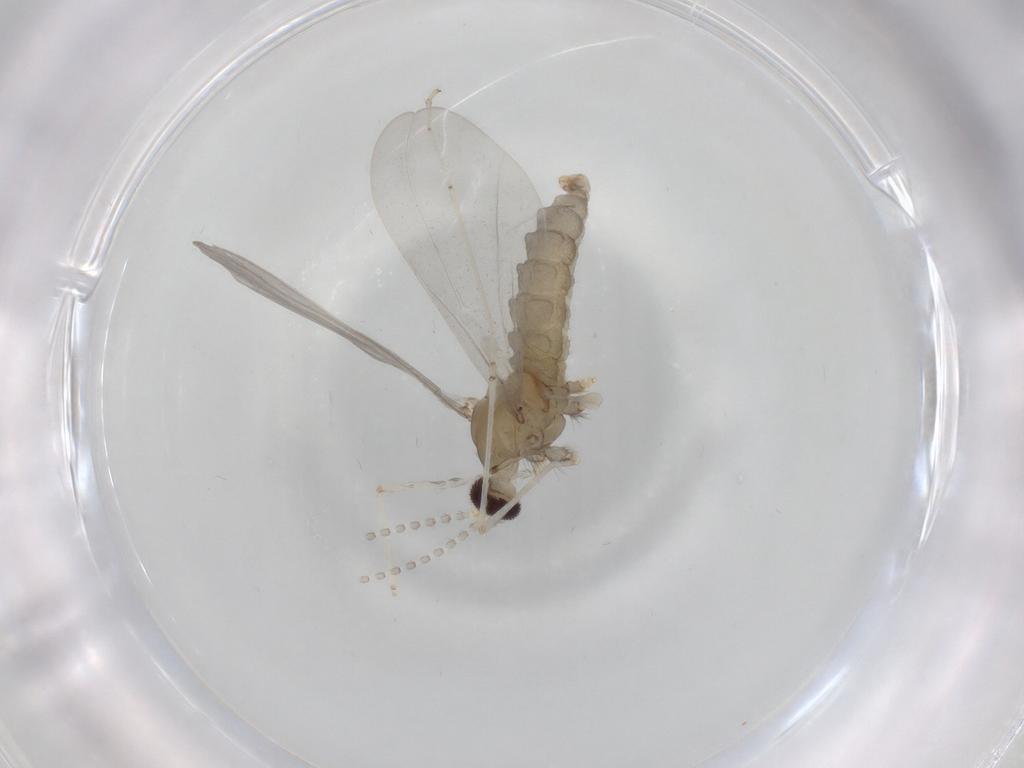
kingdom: Animalia
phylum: Arthropoda
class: Insecta
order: Diptera
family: Cecidomyiidae
